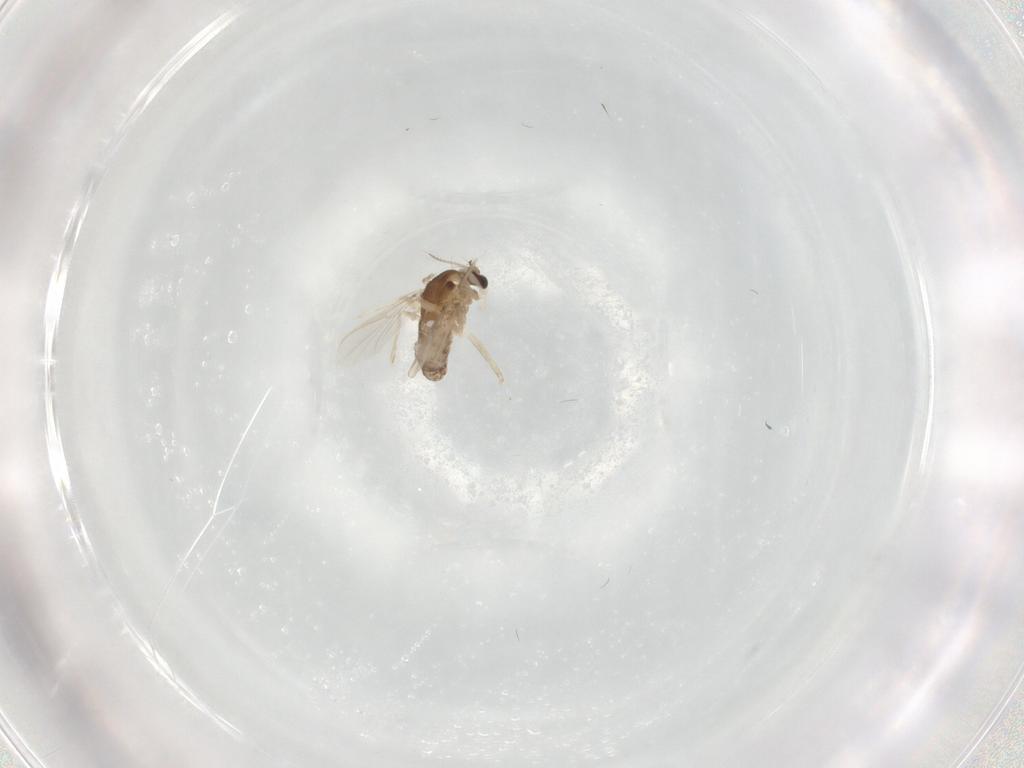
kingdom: Animalia
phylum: Arthropoda
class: Insecta
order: Diptera
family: Chironomidae
